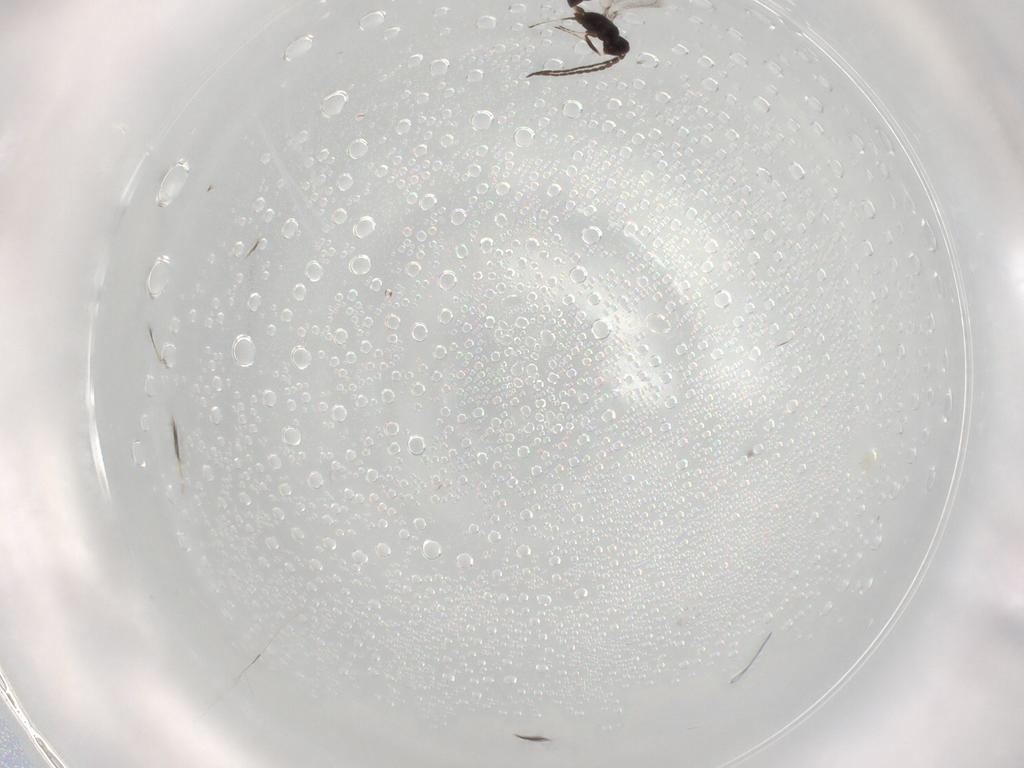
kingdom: Animalia
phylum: Arthropoda
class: Insecta
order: Hymenoptera
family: Mymaridae
